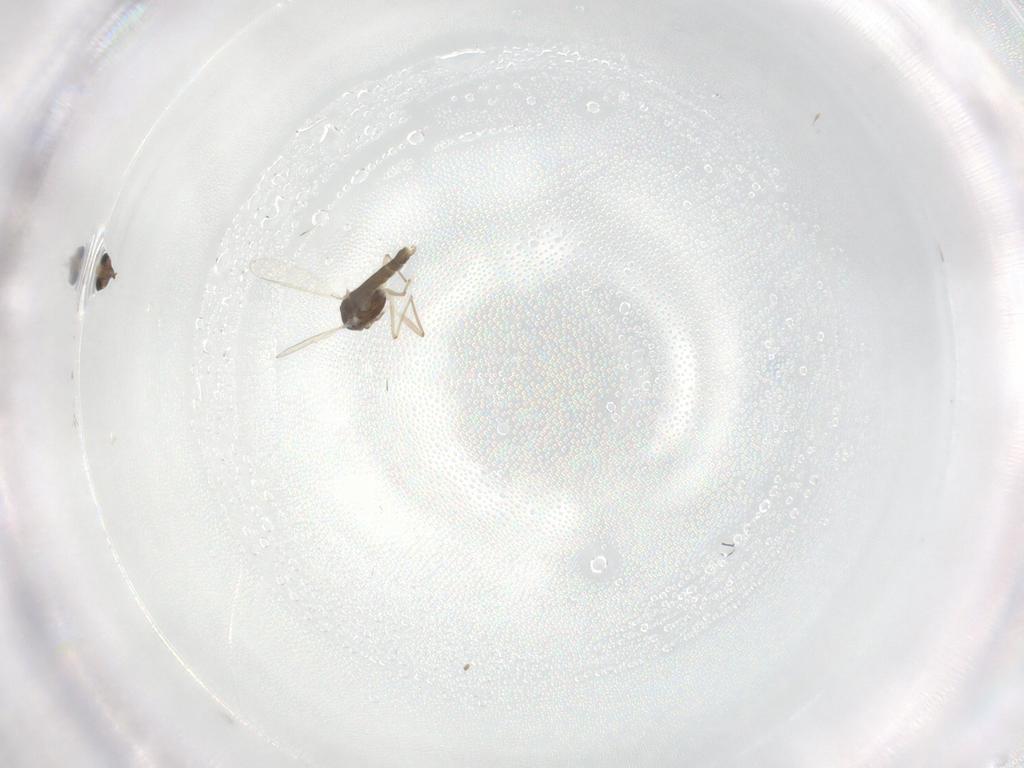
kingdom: Animalia
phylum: Arthropoda
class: Insecta
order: Diptera
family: Chironomidae
